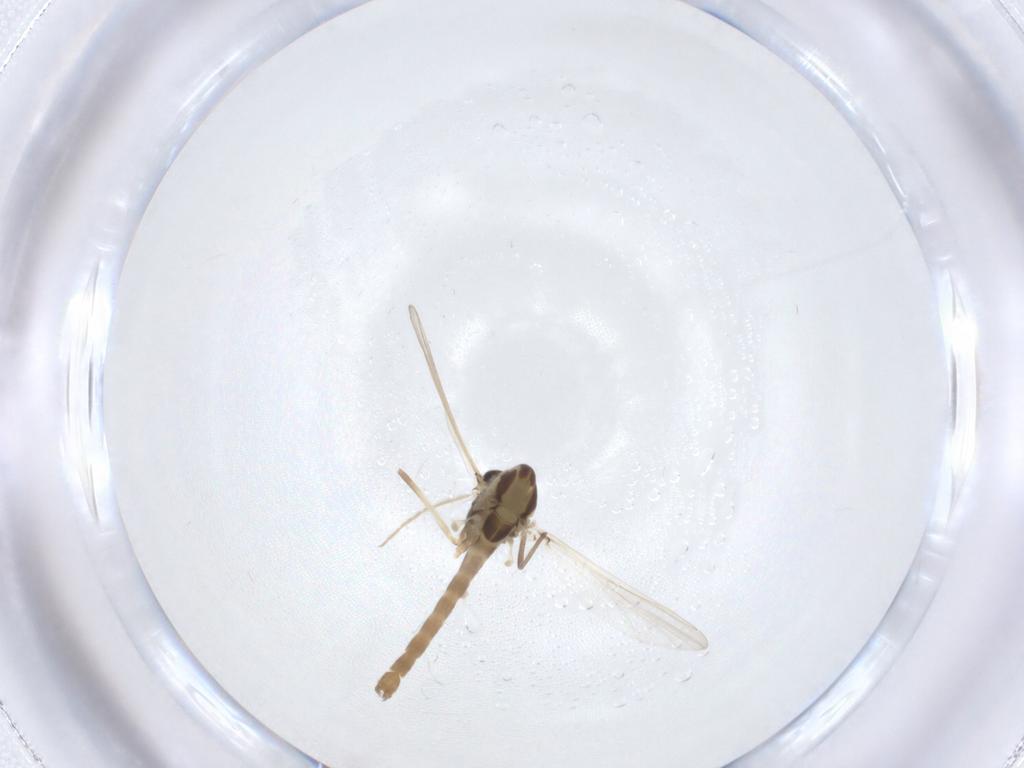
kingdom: Animalia
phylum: Arthropoda
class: Insecta
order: Diptera
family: Chironomidae
